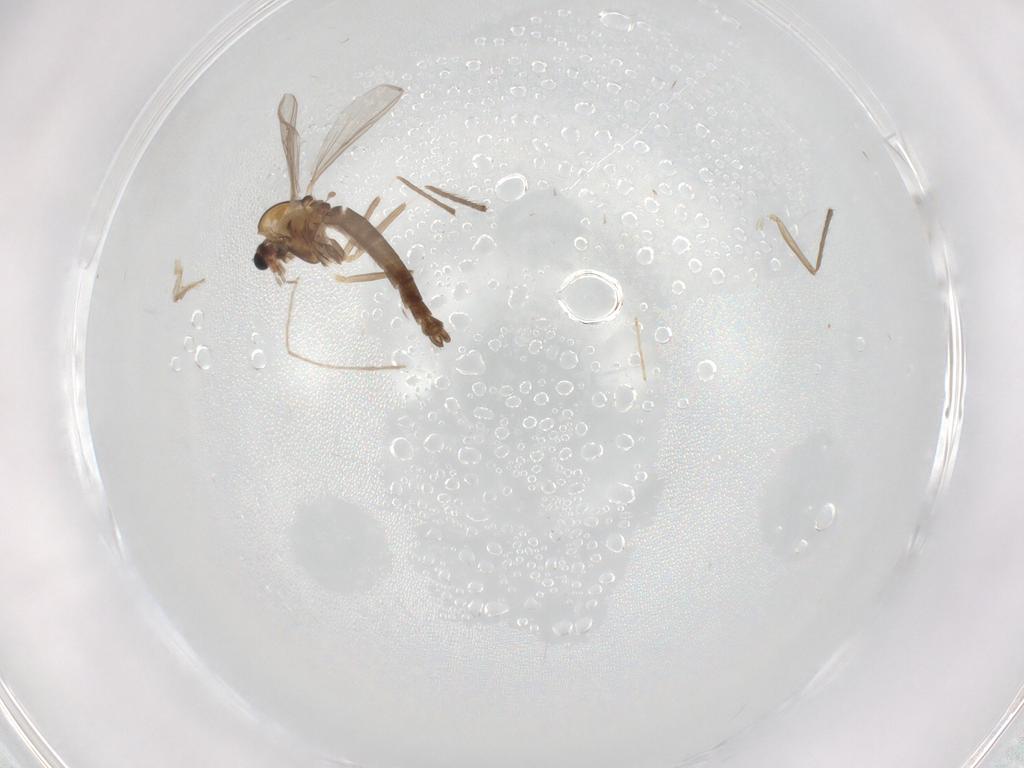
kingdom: Animalia
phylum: Arthropoda
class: Insecta
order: Diptera
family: Chironomidae
